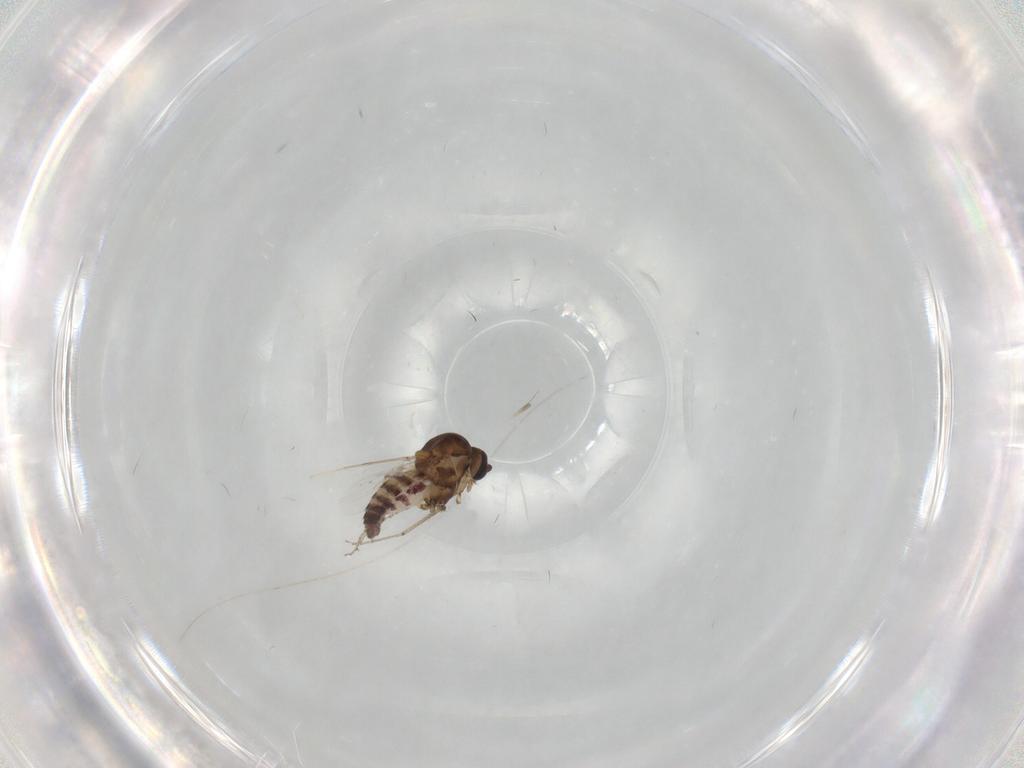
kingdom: Animalia
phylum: Arthropoda
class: Insecta
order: Diptera
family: Ceratopogonidae
